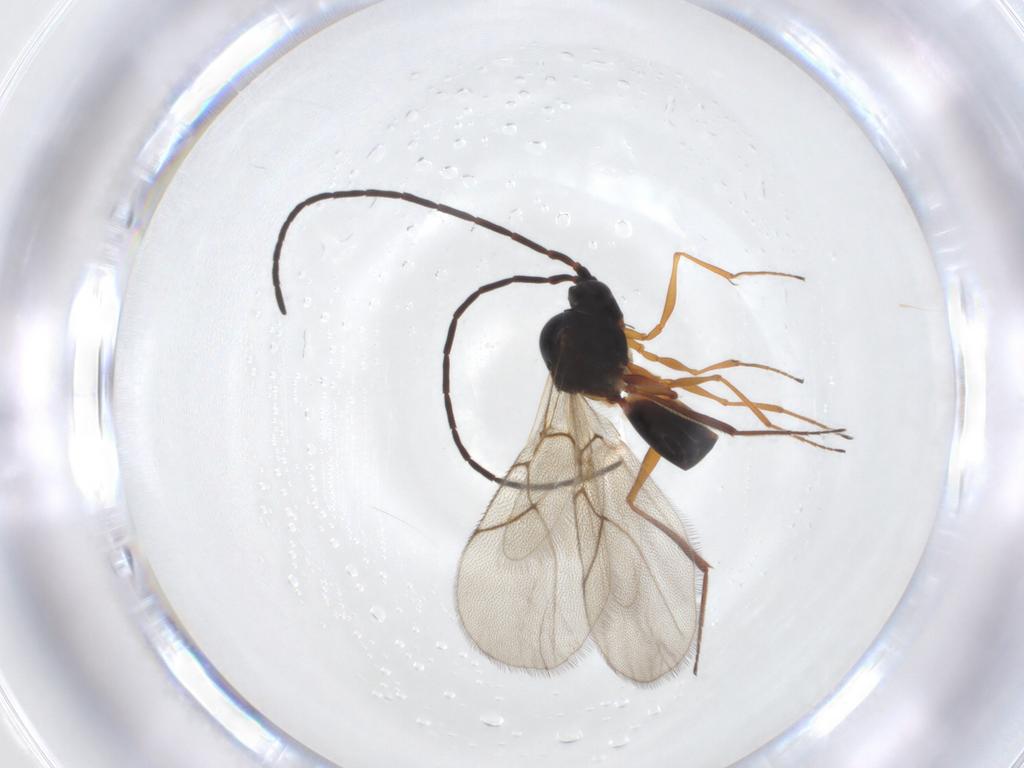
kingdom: Animalia
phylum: Arthropoda
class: Insecta
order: Hymenoptera
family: Figitidae
